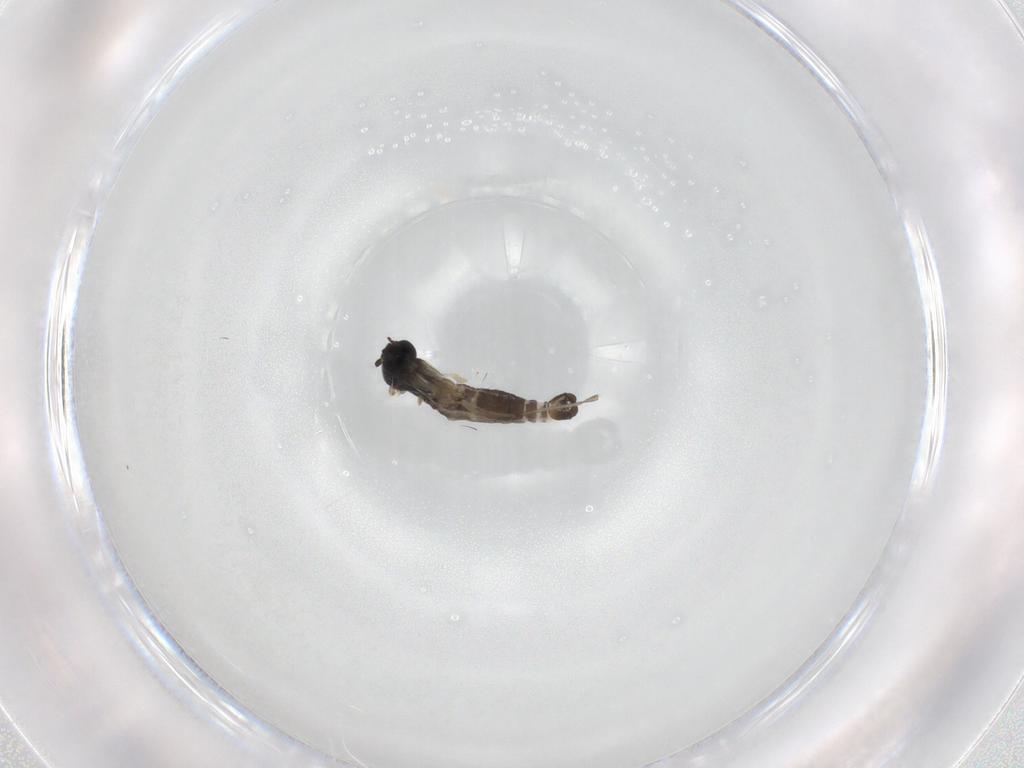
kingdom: Animalia
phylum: Arthropoda
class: Insecta
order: Diptera
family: Sciaridae
